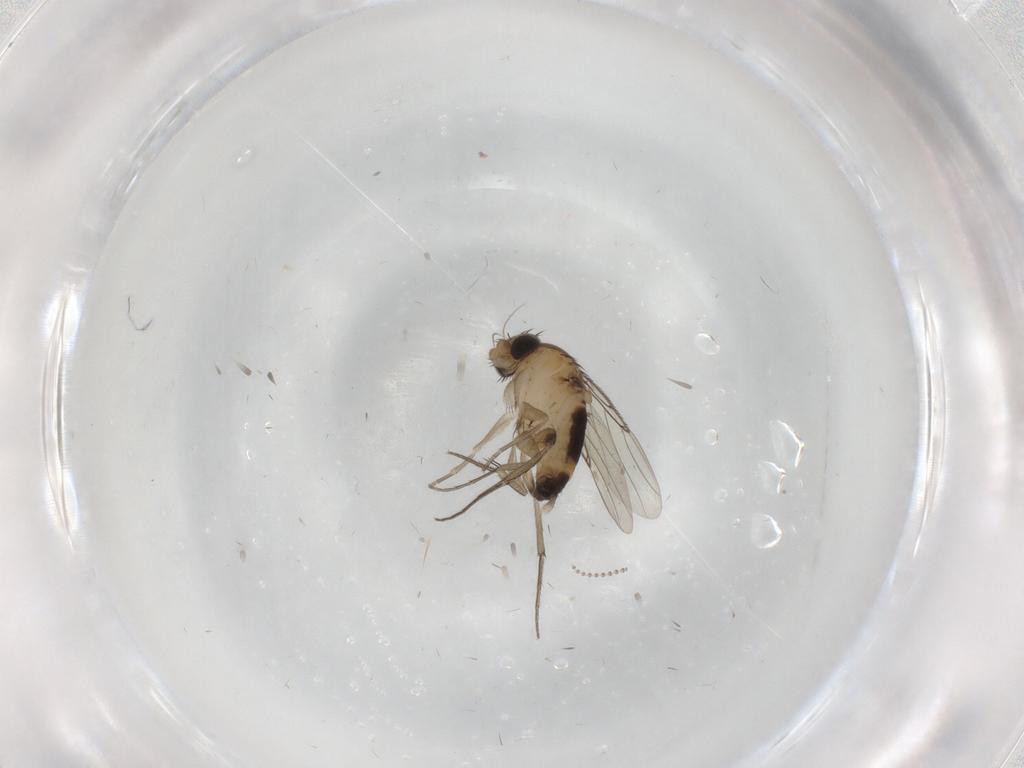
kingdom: Animalia
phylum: Arthropoda
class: Insecta
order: Diptera
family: Phoridae
